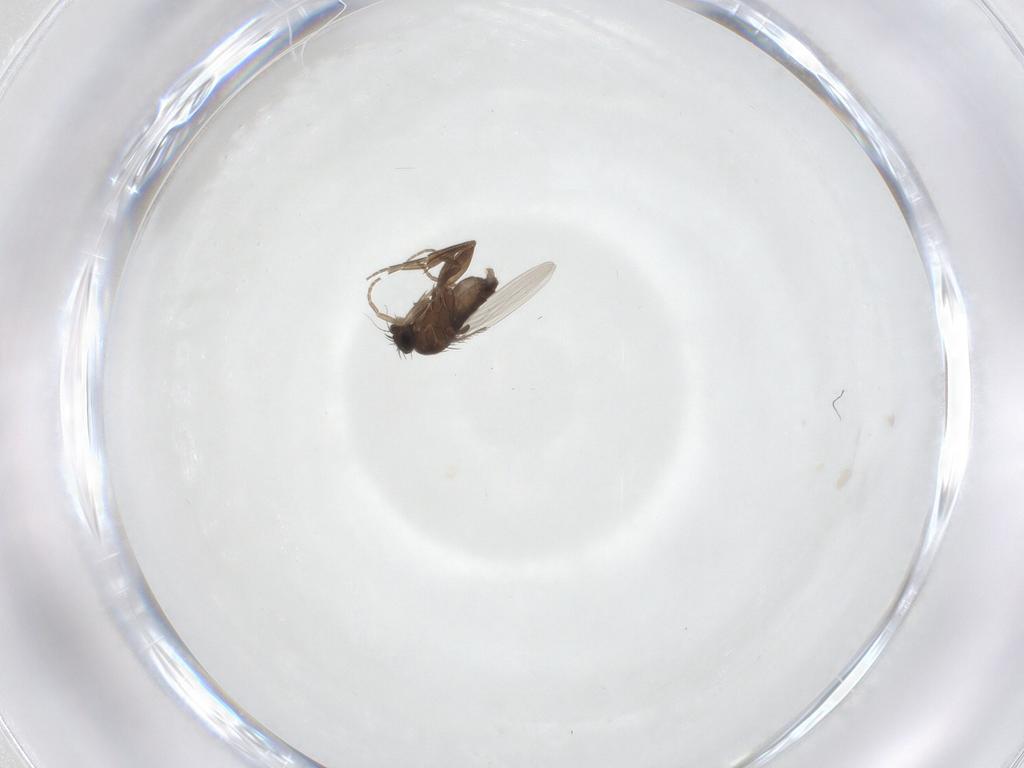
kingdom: Animalia
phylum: Arthropoda
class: Insecta
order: Diptera
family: Phoridae
